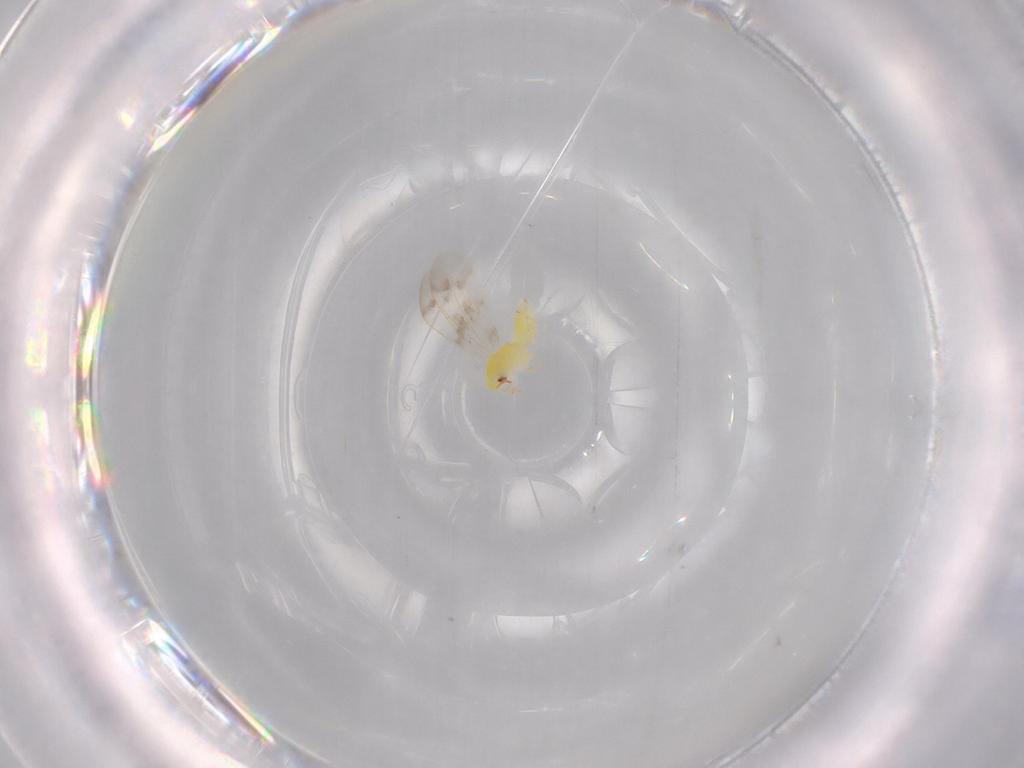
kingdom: Animalia
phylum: Arthropoda
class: Insecta
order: Hemiptera
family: Aleyrodidae
